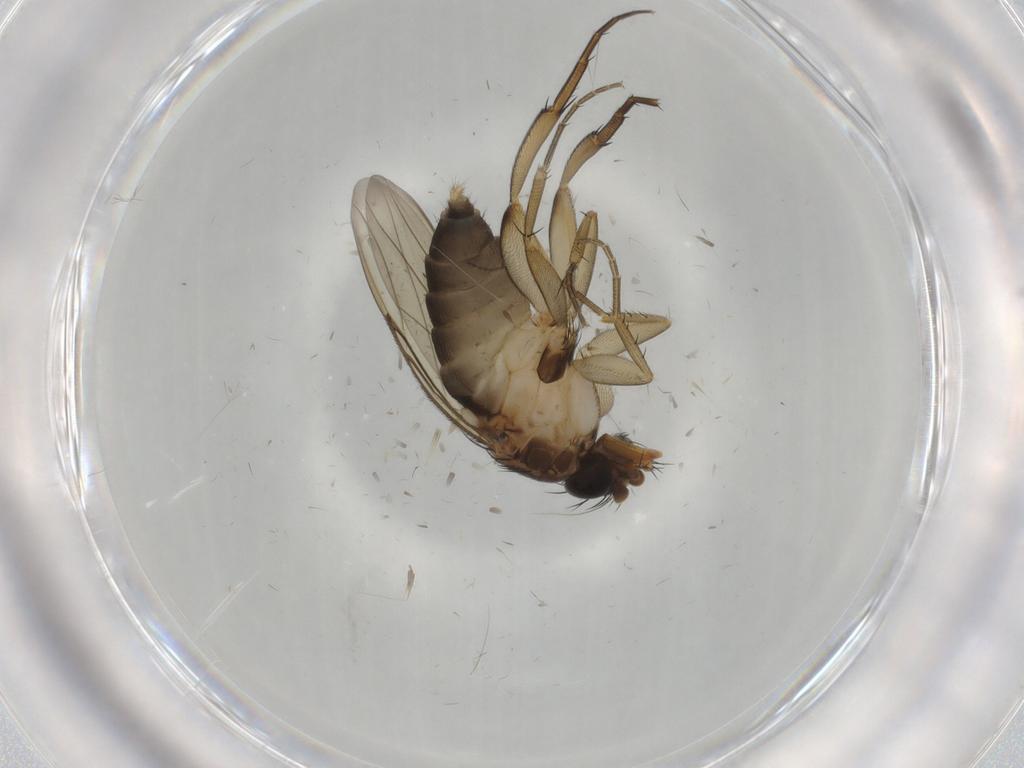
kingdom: Animalia
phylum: Arthropoda
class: Insecta
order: Diptera
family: Phoridae
